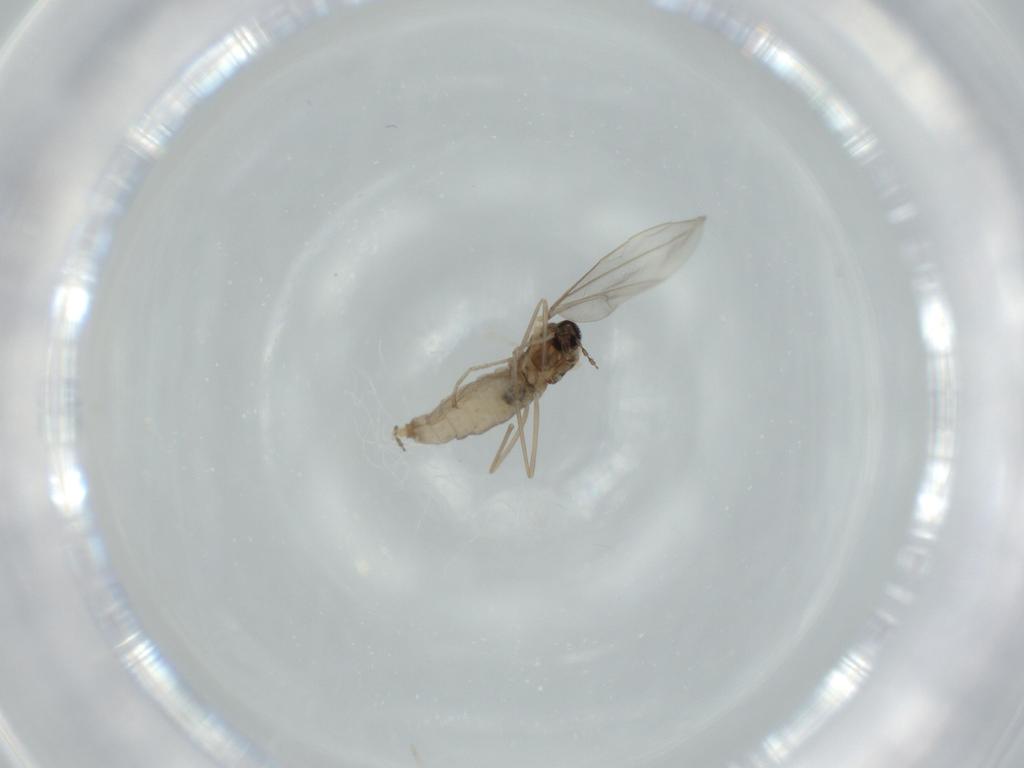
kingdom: Animalia
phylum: Arthropoda
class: Insecta
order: Diptera
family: Cecidomyiidae
